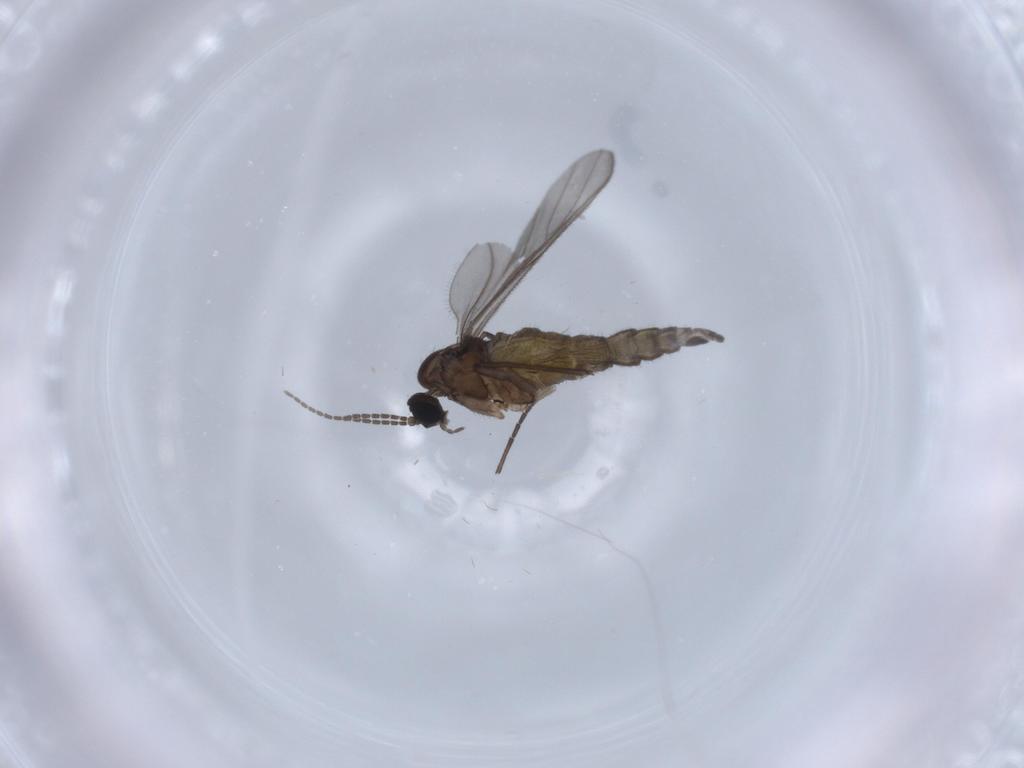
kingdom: Animalia
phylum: Arthropoda
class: Insecta
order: Diptera
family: Sciaridae
